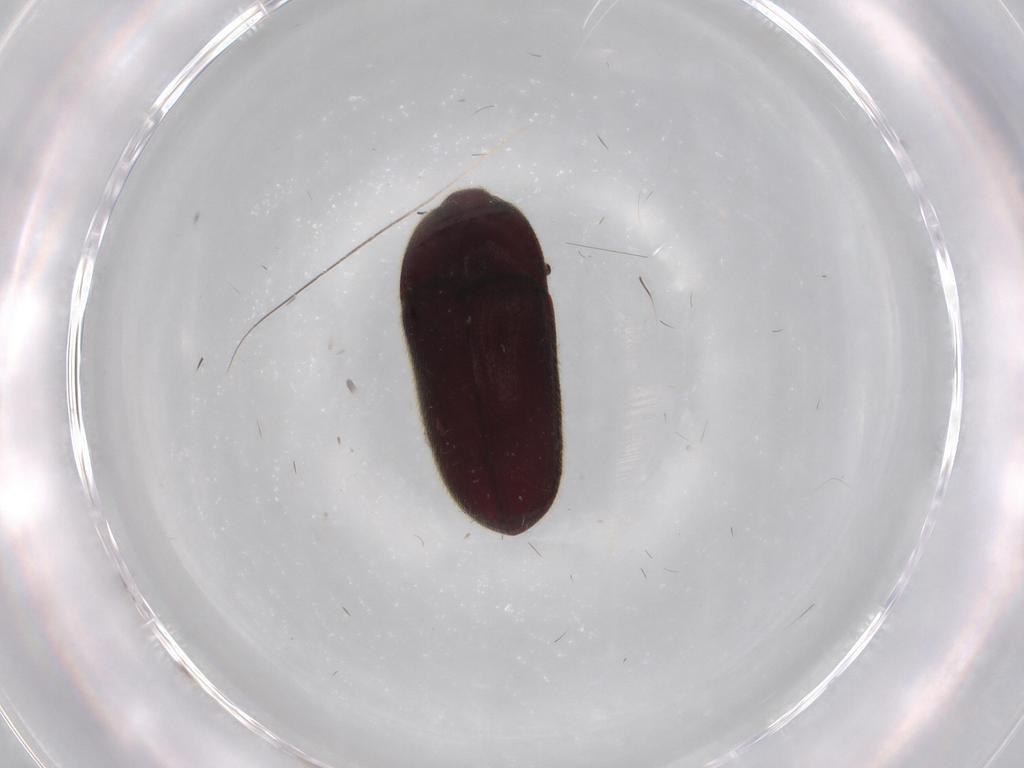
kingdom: Animalia
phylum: Arthropoda
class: Insecta
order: Coleoptera
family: Throscidae
